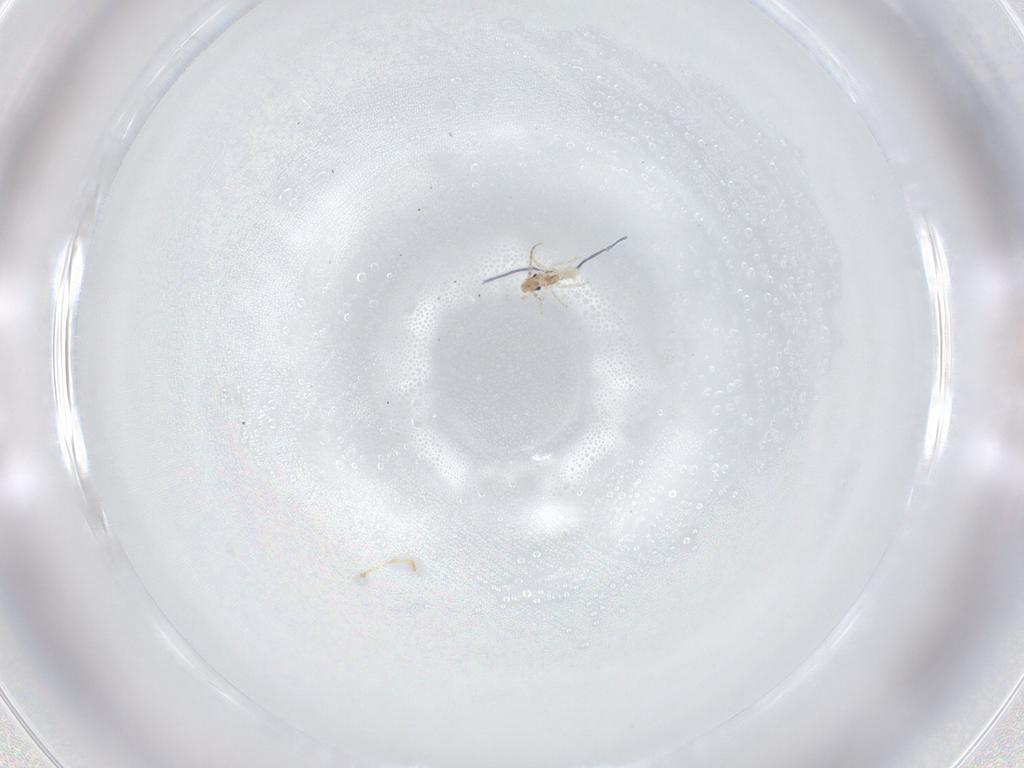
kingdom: Animalia
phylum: Arthropoda
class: Insecta
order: Psocodea
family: Lepidopsocidae
